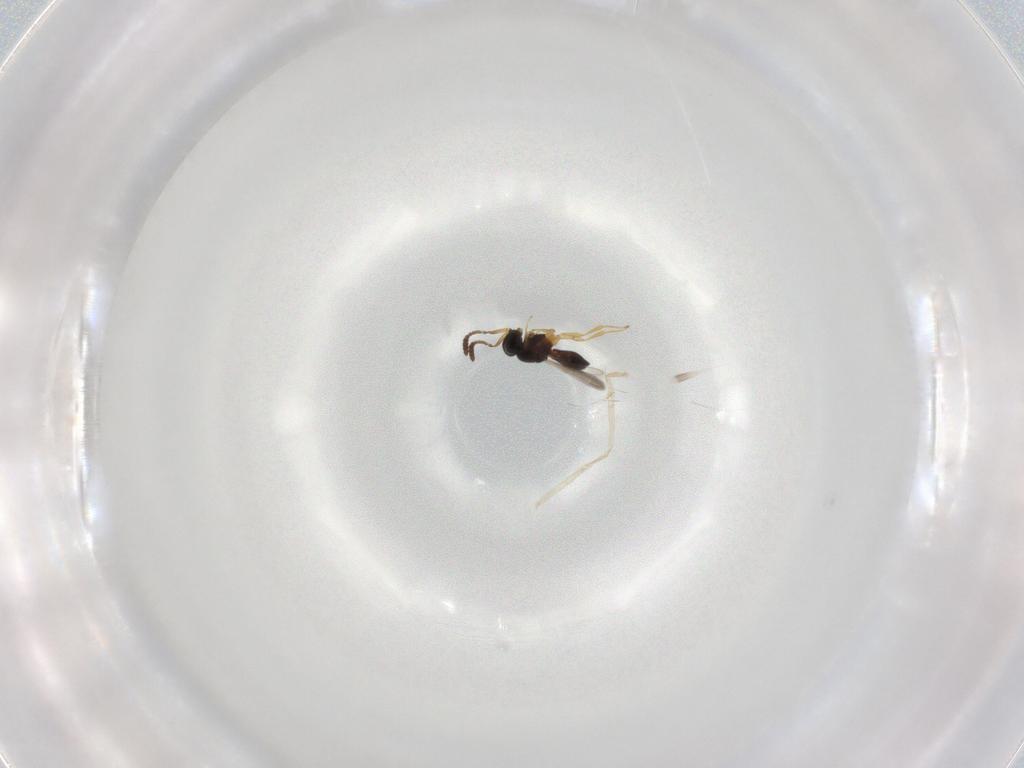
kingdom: Animalia
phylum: Arthropoda
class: Insecta
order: Hymenoptera
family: Scelionidae
